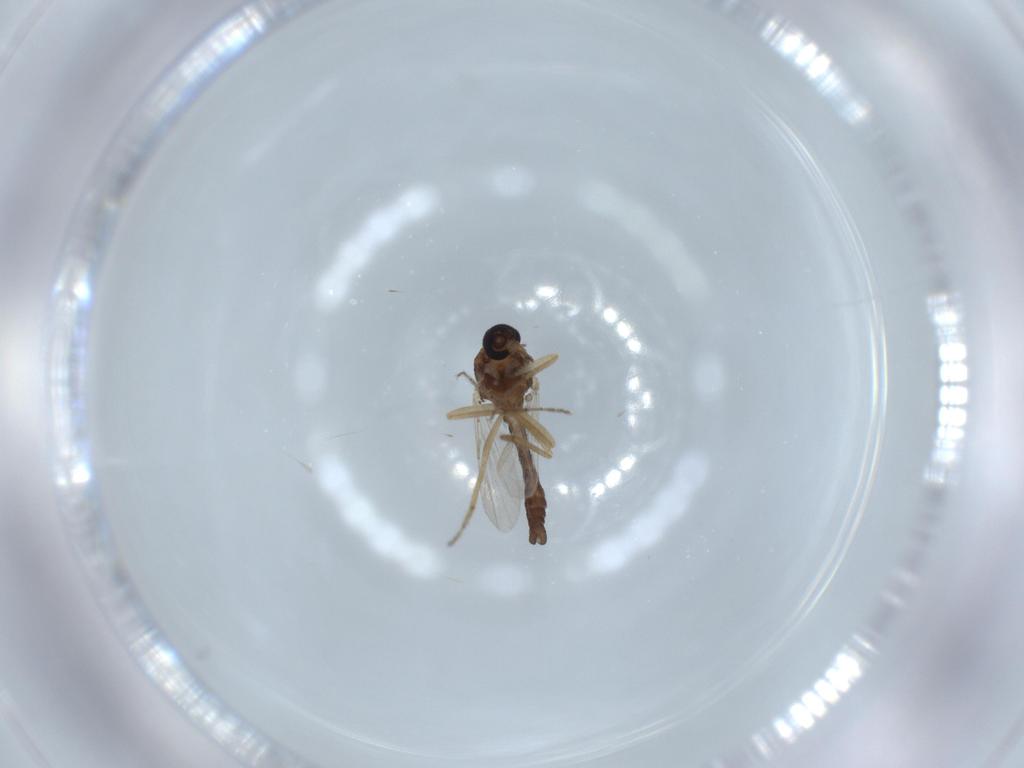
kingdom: Animalia
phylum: Arthropoda
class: Insecta
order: Diptera
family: Ceratopogonidae
